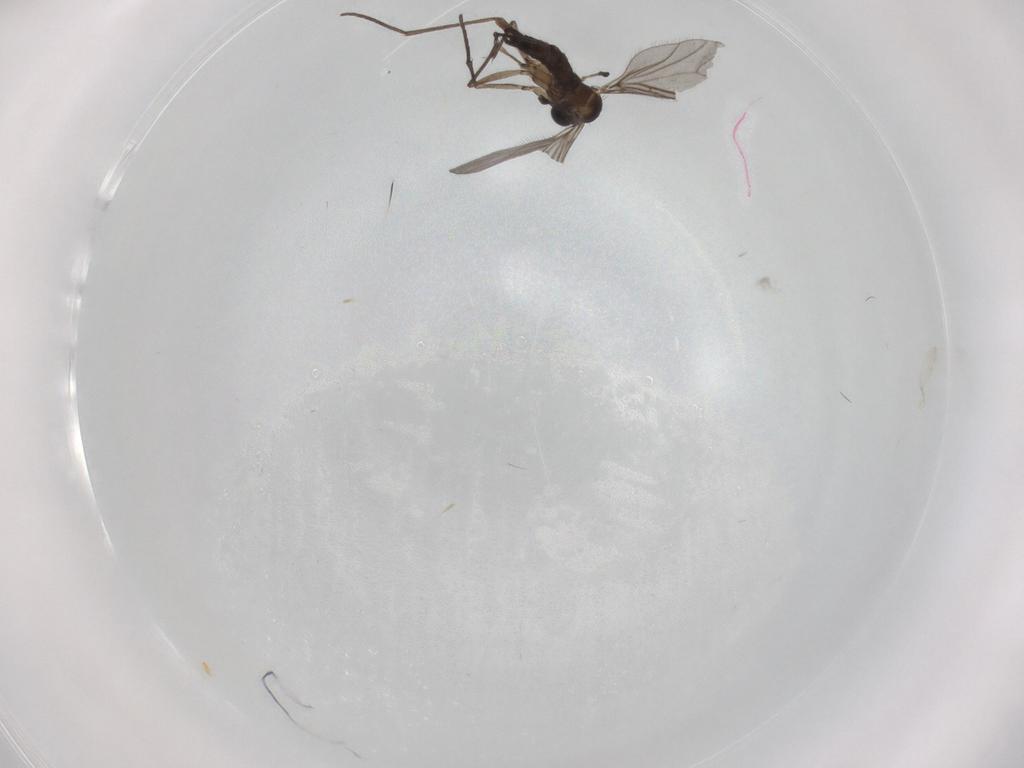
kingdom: Animalia
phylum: Arthropoda
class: Insecta
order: Diptera
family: Sciaridae
